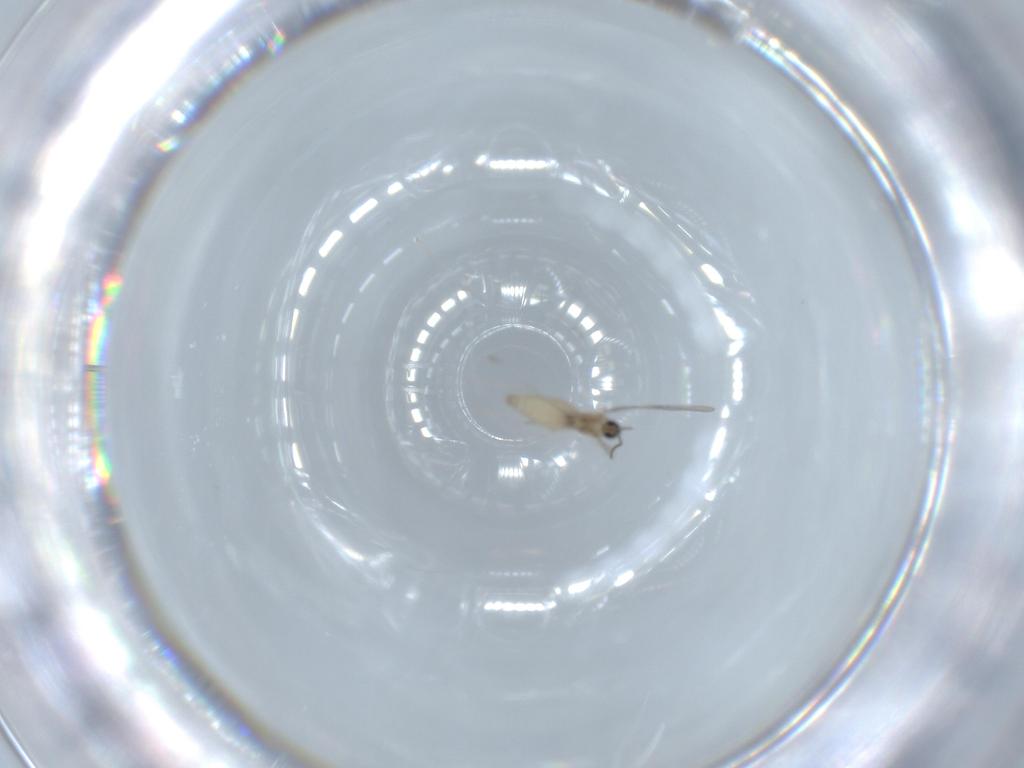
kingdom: Animalia
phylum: Arthropoda
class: Insecta
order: Diptera
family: Cecidomyiidae
